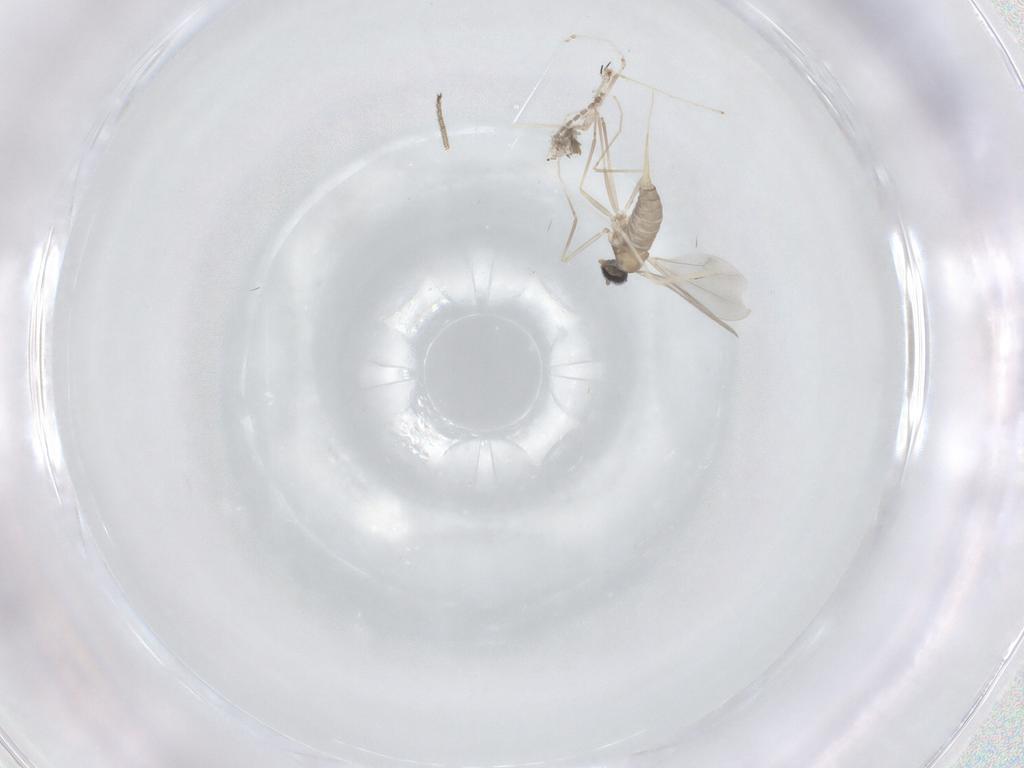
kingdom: Animalia
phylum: Arthropoda
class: Insecta
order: Diptera
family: Cecidomyiidae
